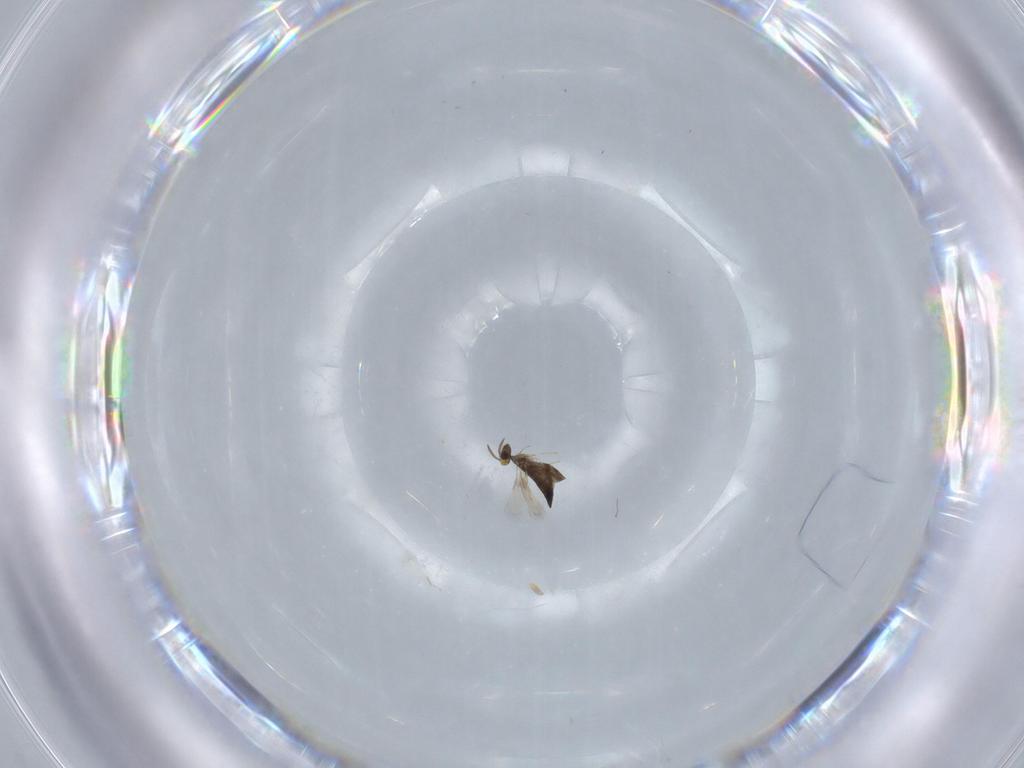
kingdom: Animalia
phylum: Arthropoda
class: Insecta
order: Hymenoptera
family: Signiphoridae
